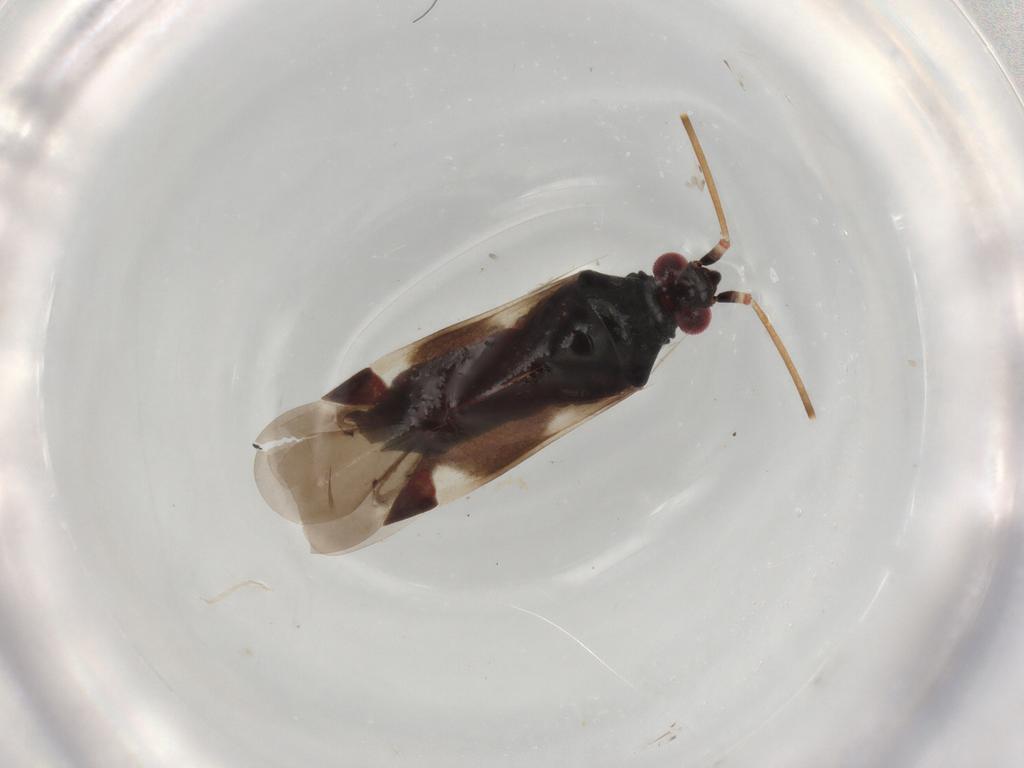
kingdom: Animalia
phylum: Arthropoda
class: Insecta
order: Hemiptera
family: Miridae
